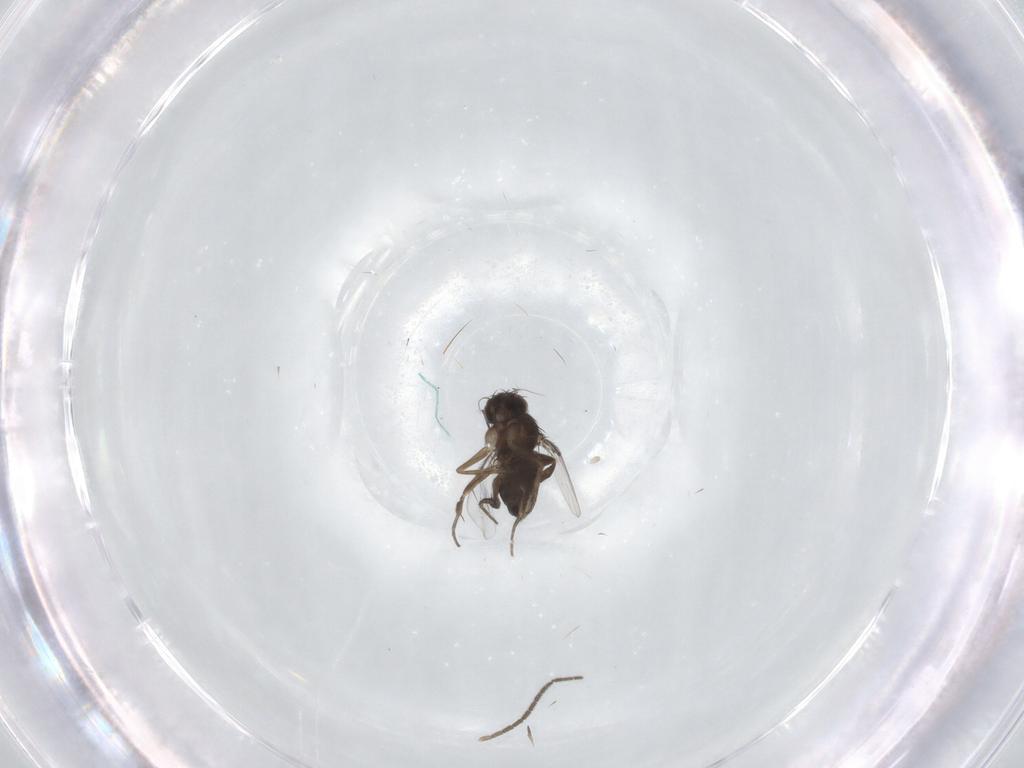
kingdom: Animalia
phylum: Arthropoda
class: Insecta
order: Diptera
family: Phoridae
